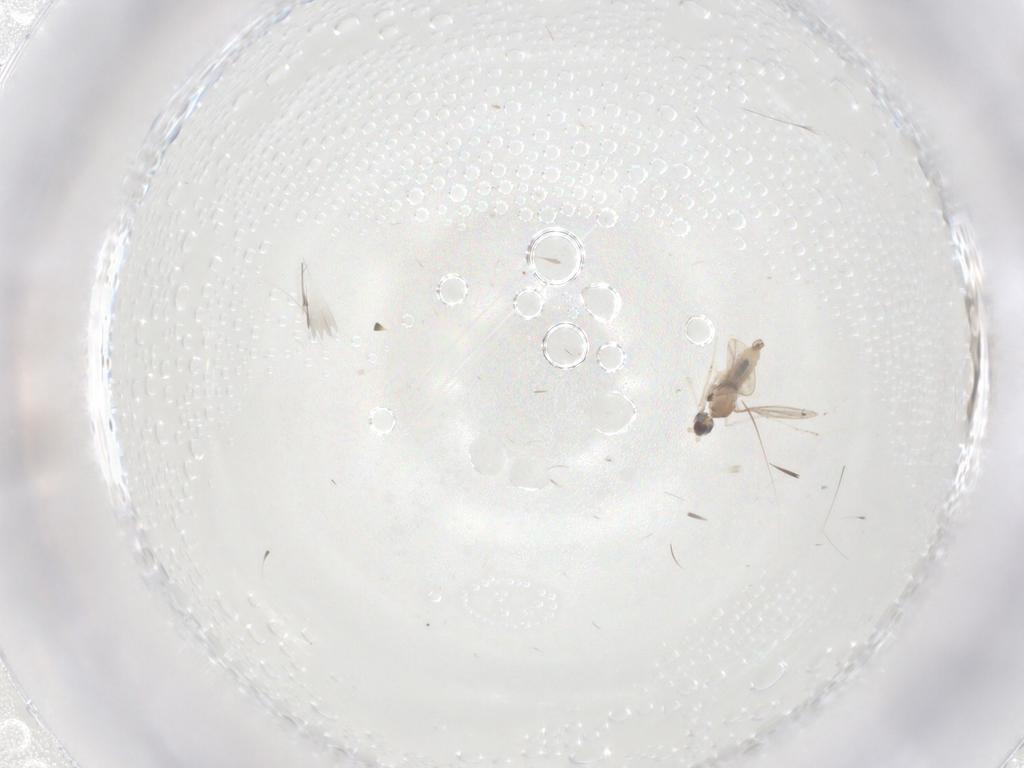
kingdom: Animalia
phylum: Arthropoda
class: Insecta
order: Diptera
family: Cecidomyiidae
